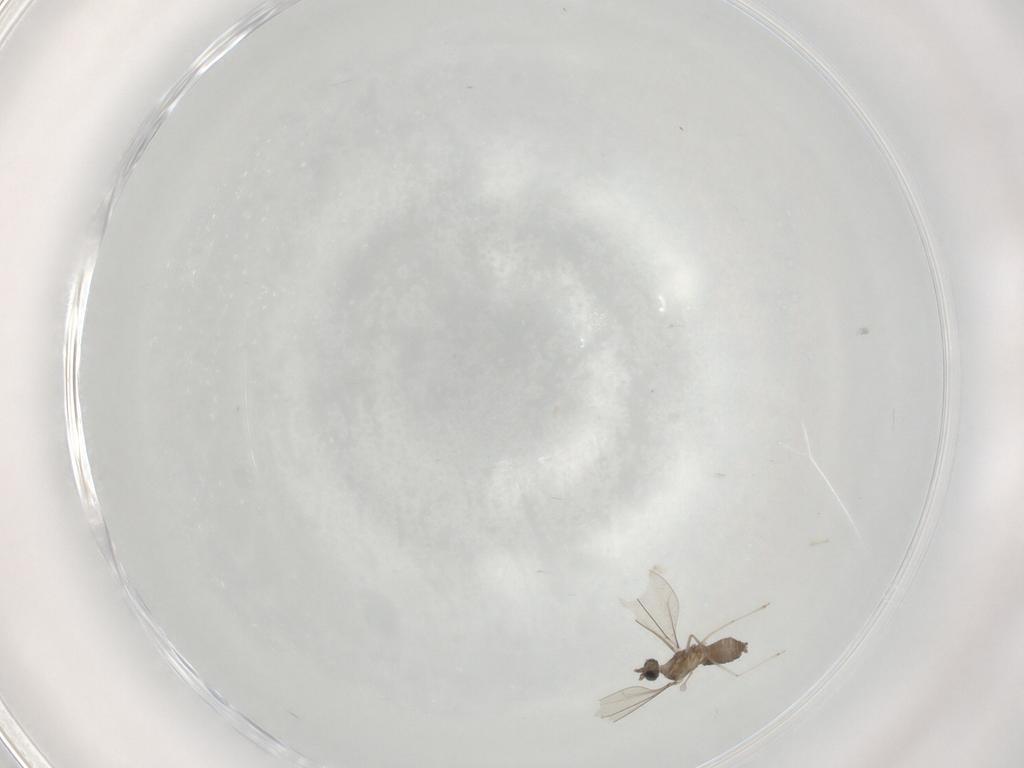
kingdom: Animalia
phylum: Arthropoda
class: Insecta
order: Diptera
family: Cecidomyiidae
